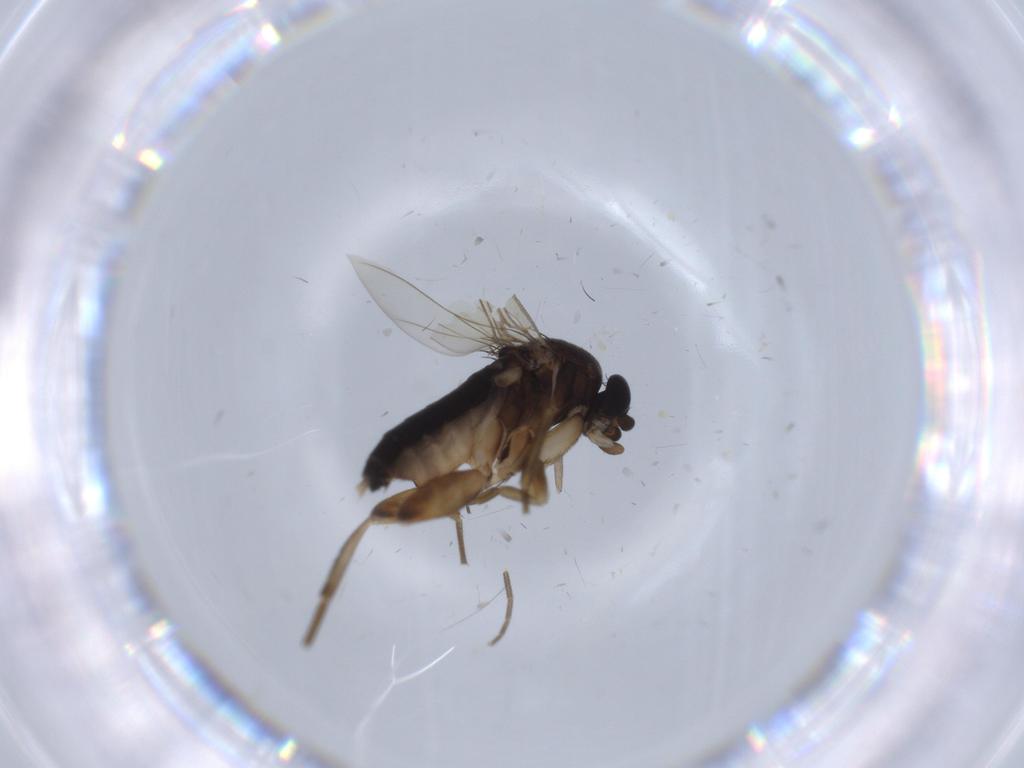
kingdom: Animalia
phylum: Arthropoda
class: Insecta
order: Diptera
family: Phoridae
